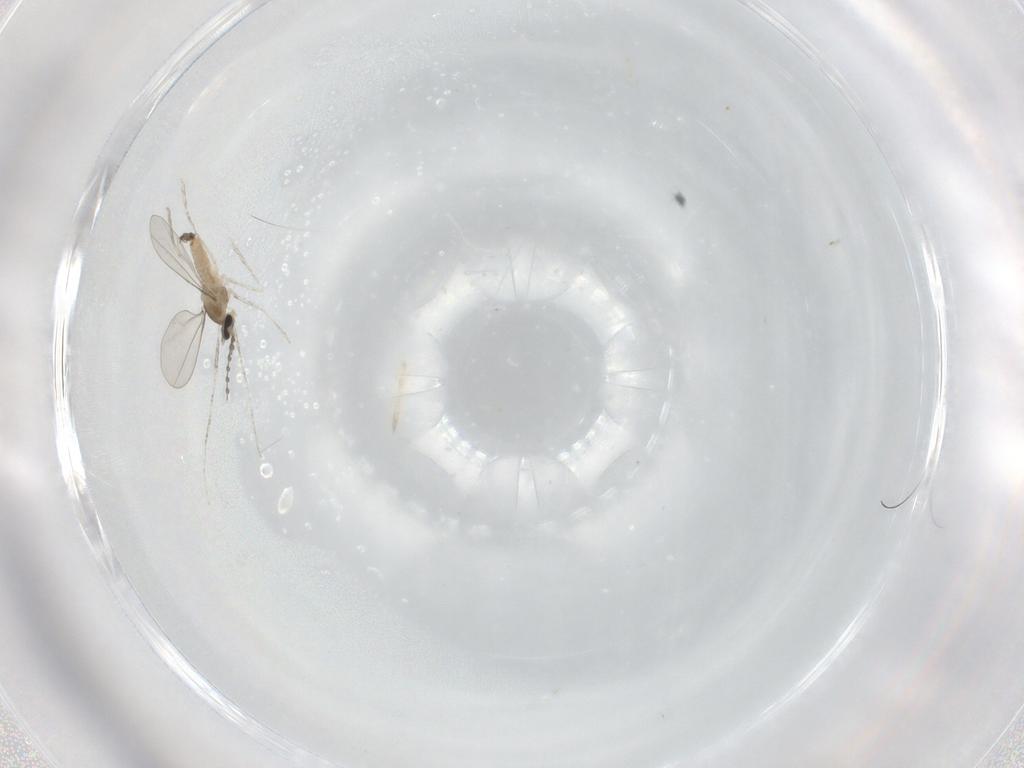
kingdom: Animalia
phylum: Arthropoda
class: Insecta
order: Diptera
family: Cecidomyiidae
